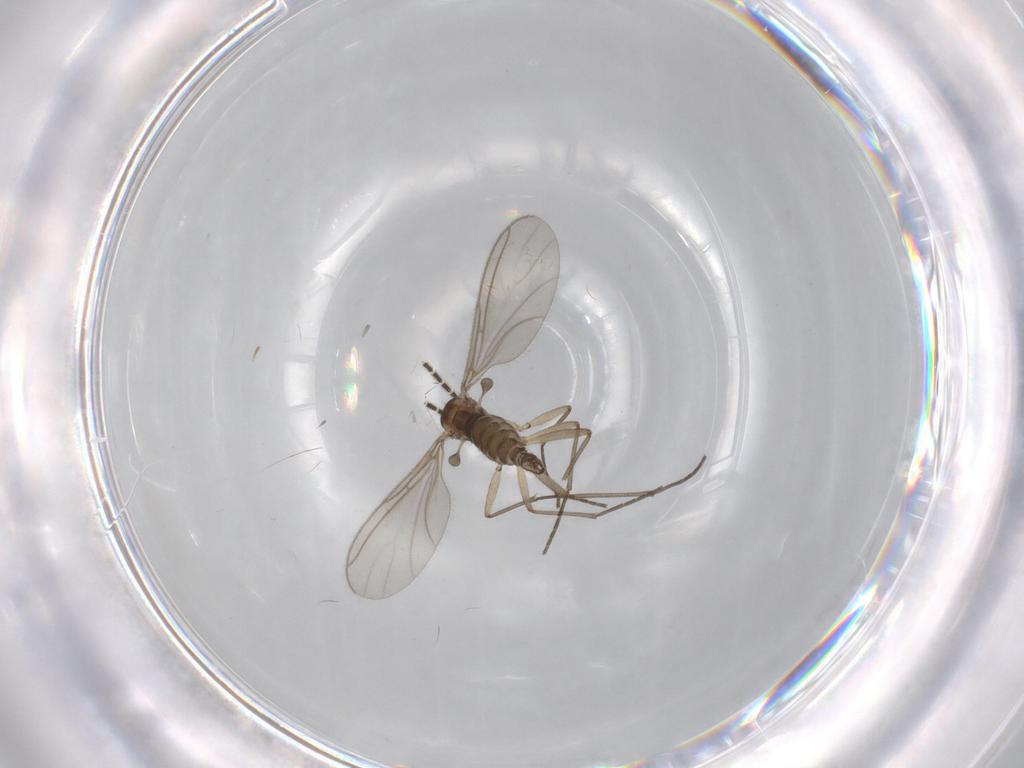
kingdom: Animalia
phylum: Arthropoda
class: Insecta
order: Diptera
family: Sciaridae
